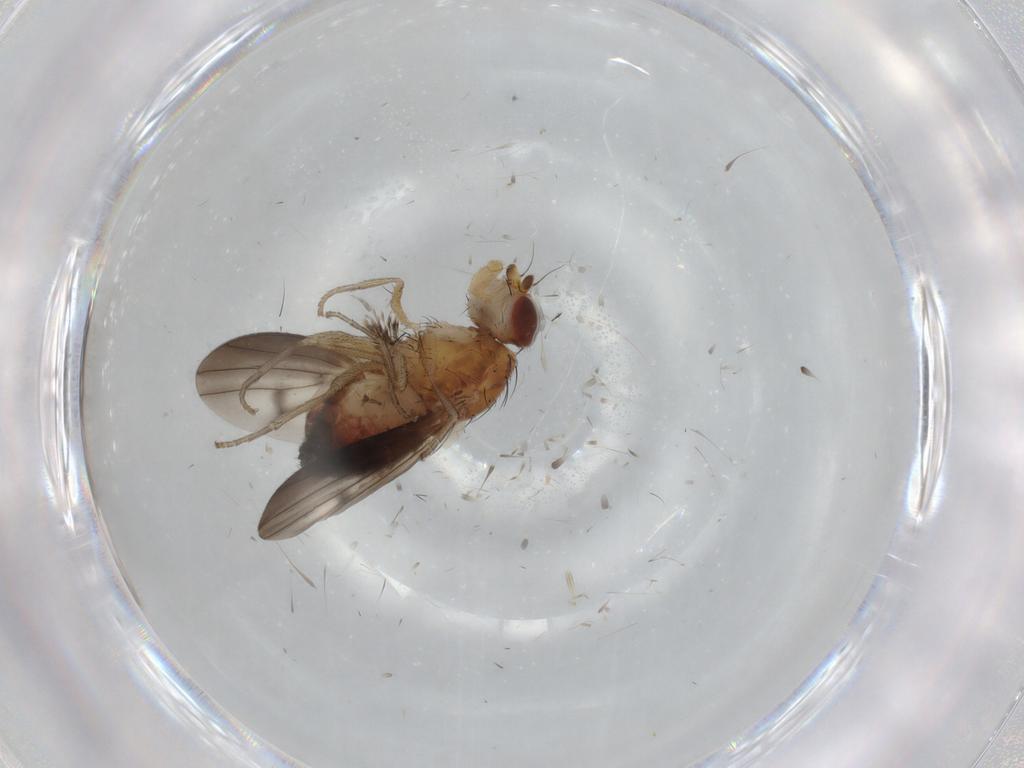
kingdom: Animalia
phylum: Arthropoda
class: Insecta
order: Diptera
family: Heleomyzidae
